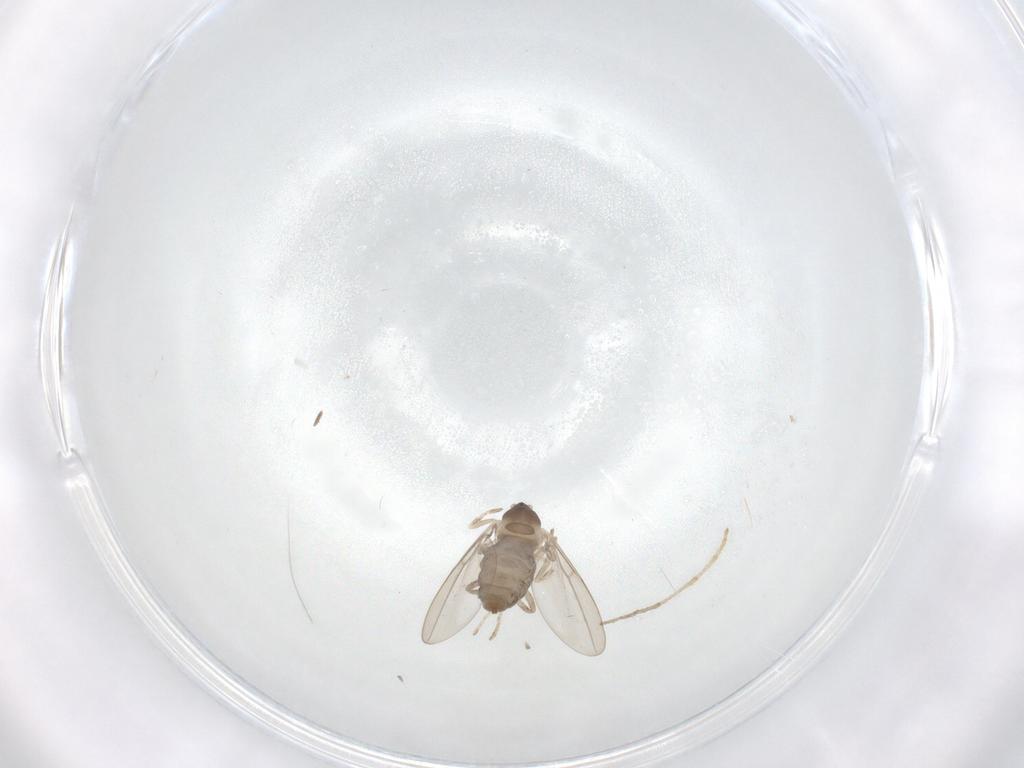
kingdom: Animalia
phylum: Arthropoda
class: Insecta
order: Diptera
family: Cecidomyiidae
